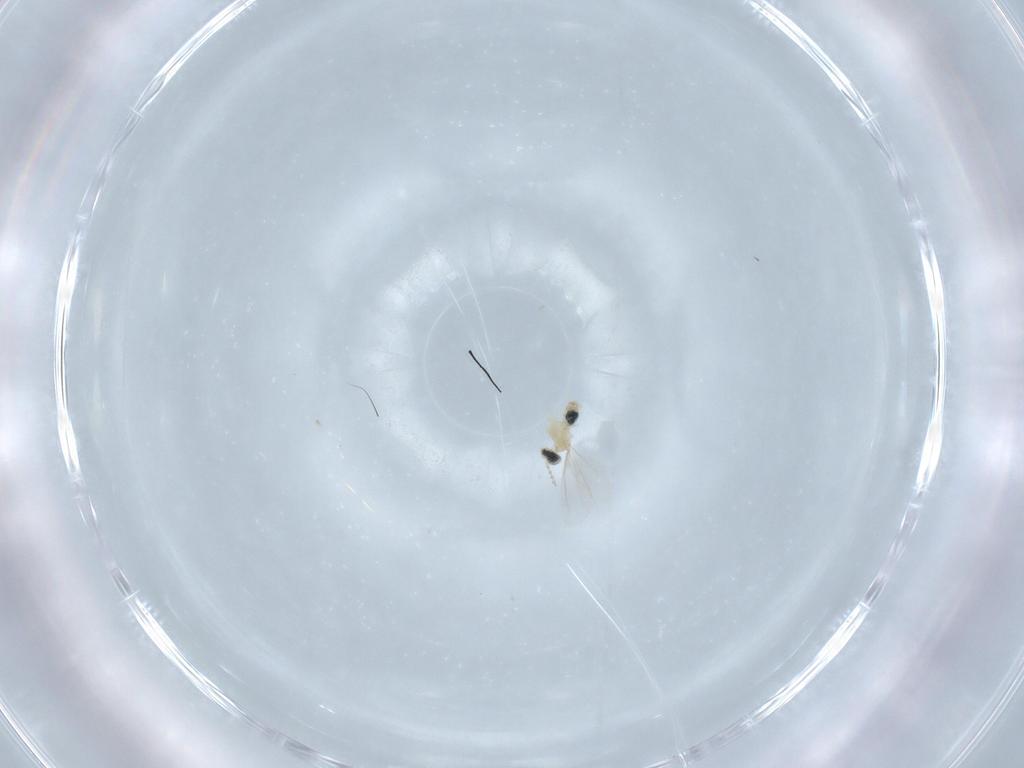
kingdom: Animalia
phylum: Arthropoda
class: Insecta
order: Diptera
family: Cecidomyiidae
